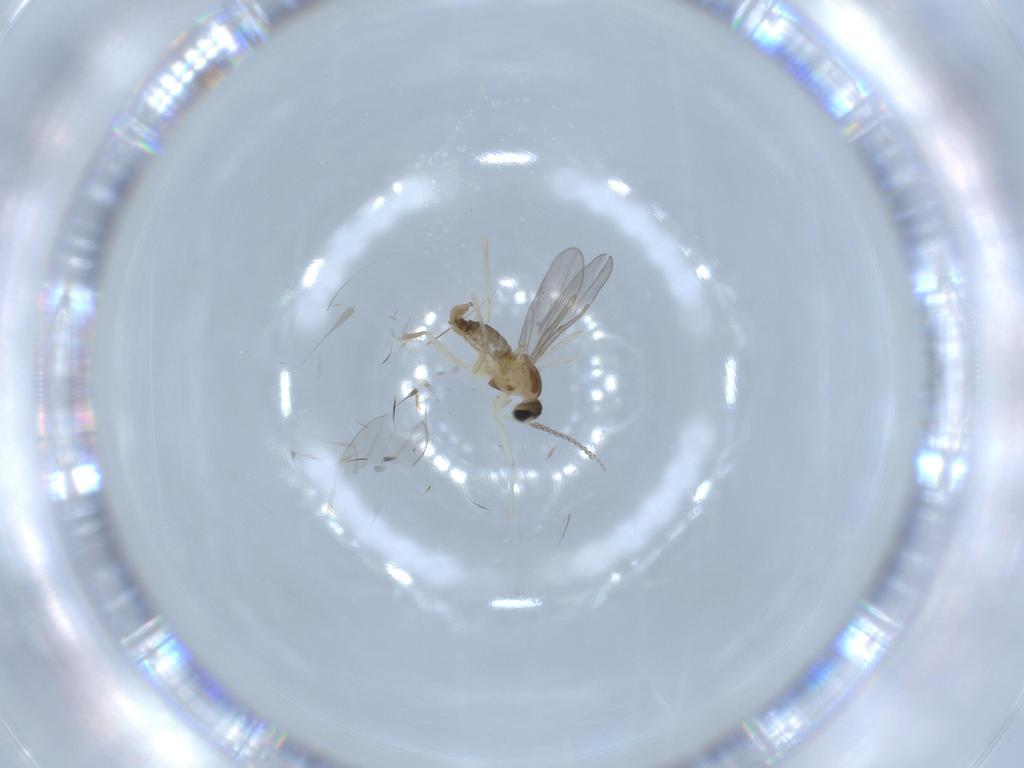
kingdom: Animalia
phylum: Arthropoda
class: Insecta
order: Diptera
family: Cecidomyiidae
